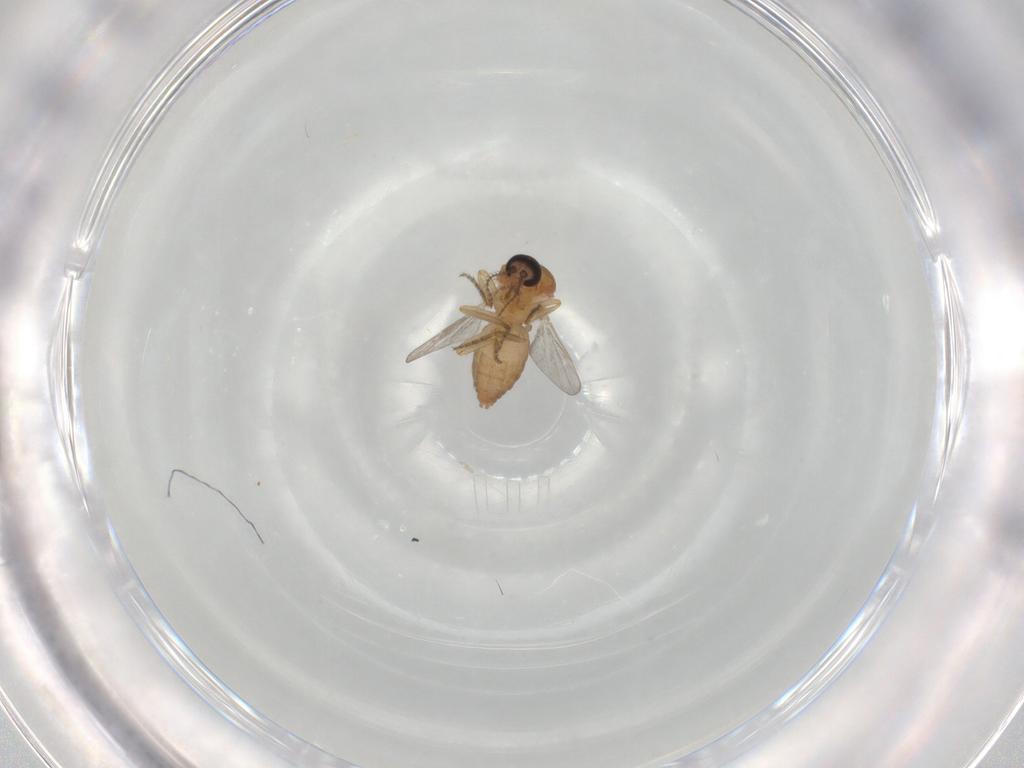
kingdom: Animalia
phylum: Arthropoda
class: Insecta
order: Diptera
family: Ceratopogonidae
